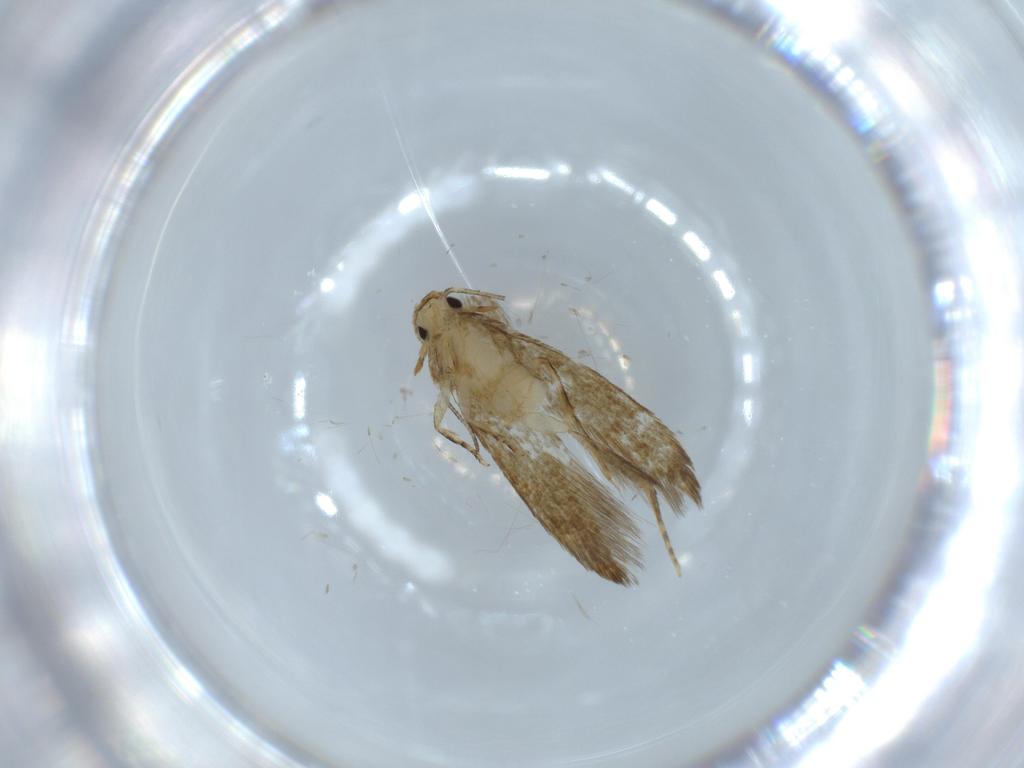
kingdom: Animalia
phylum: Arthropoda
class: Insecta
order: Lepidoptera
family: Tineidae
